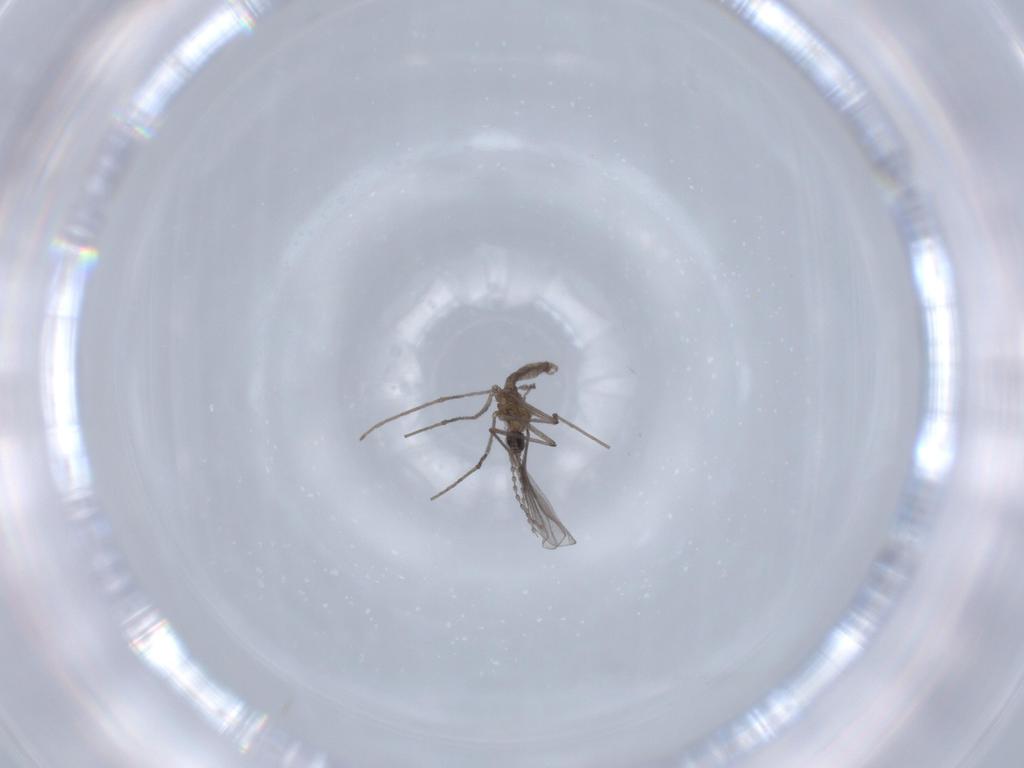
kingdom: Animalia
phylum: Arthropoda
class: Insecta
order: Diptera
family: Cecidomyiidae
